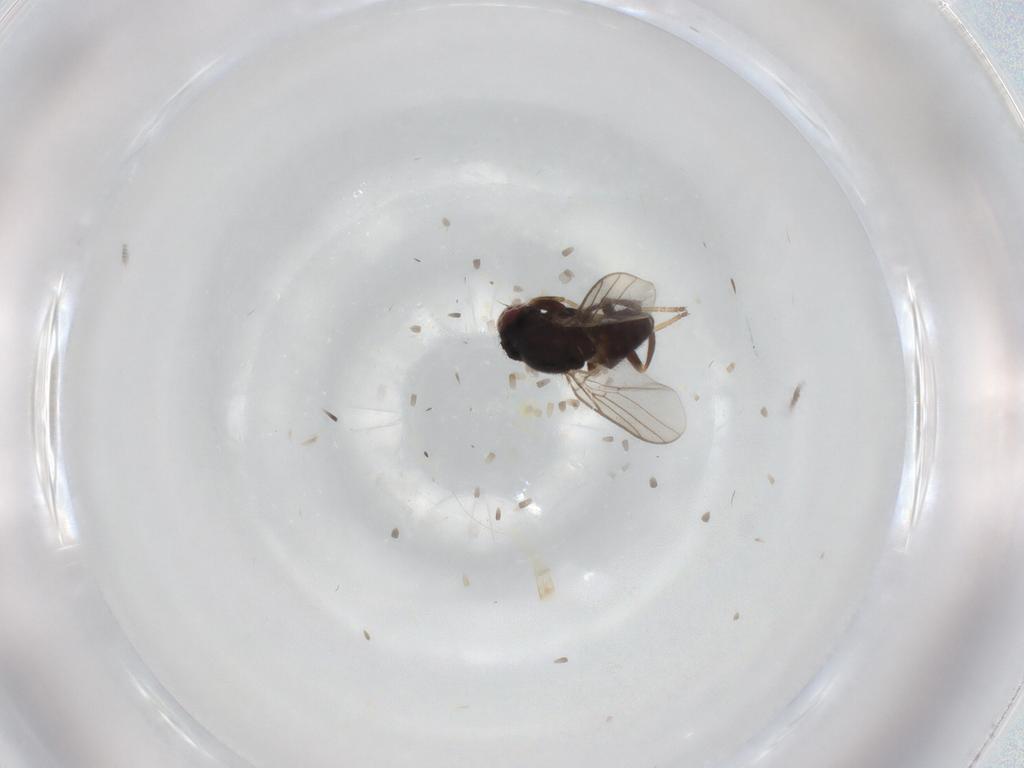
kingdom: Animalia
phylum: Arthropoda
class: Insecta
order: Diptera
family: Chloropidae
